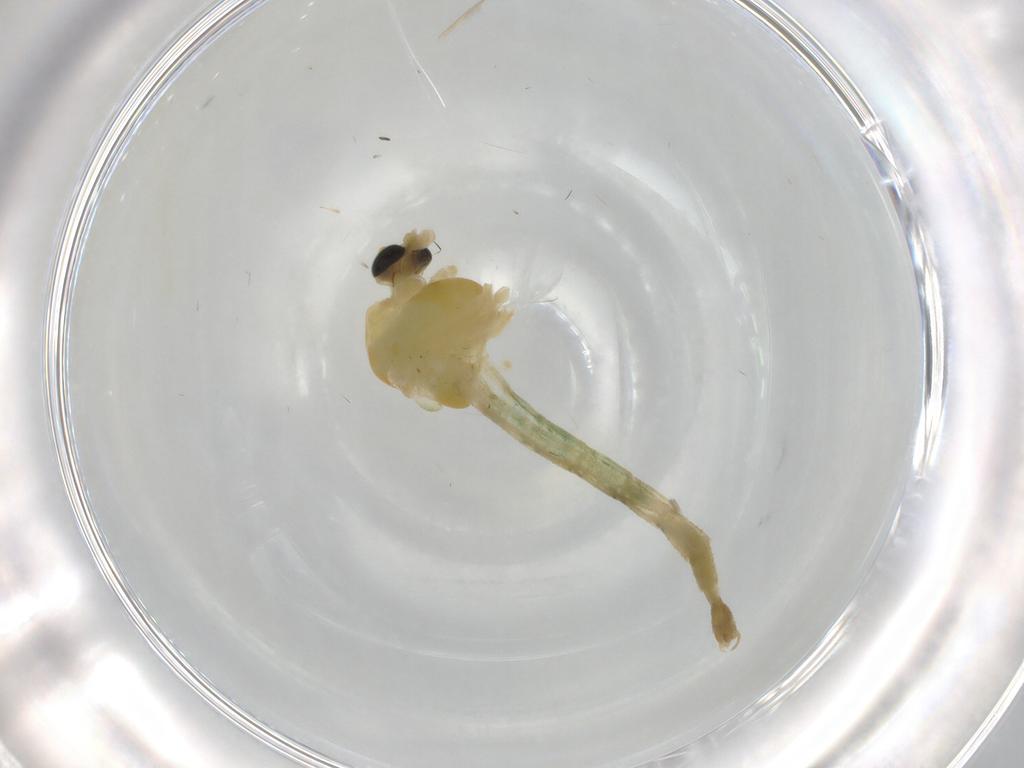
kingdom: Animalia
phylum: Arthropoda
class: Insecta
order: Diptera
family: Chironomidae
